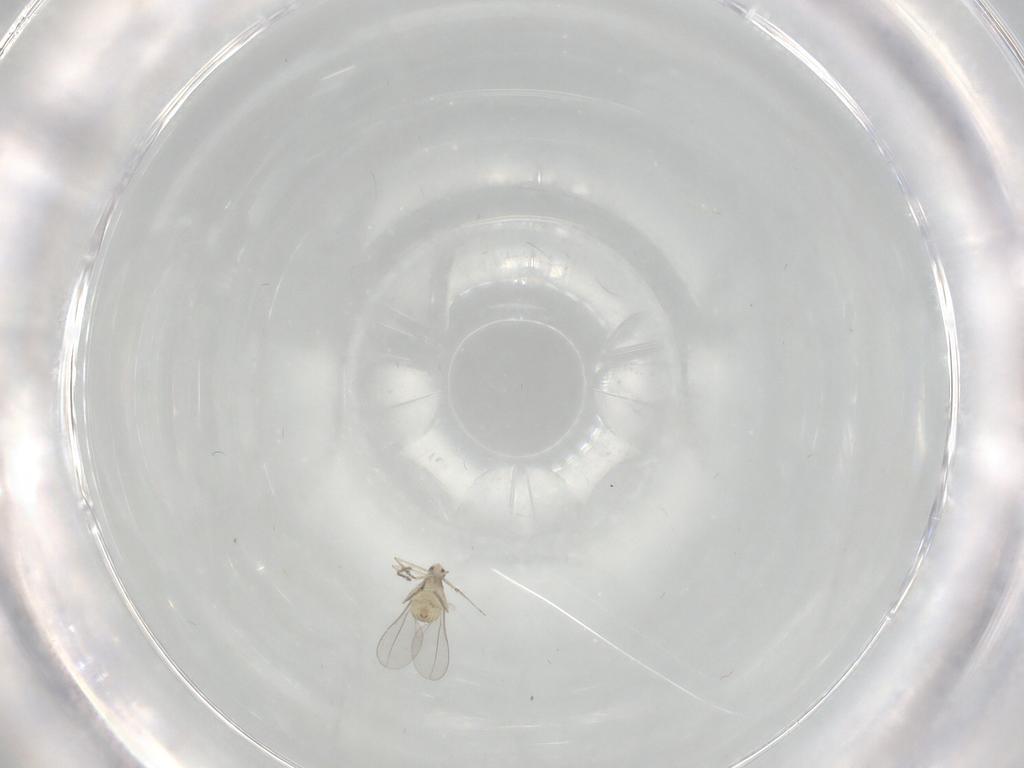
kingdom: Animalia
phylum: Arthropoda
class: Insecta
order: Diptera
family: Cecidomyiidae
